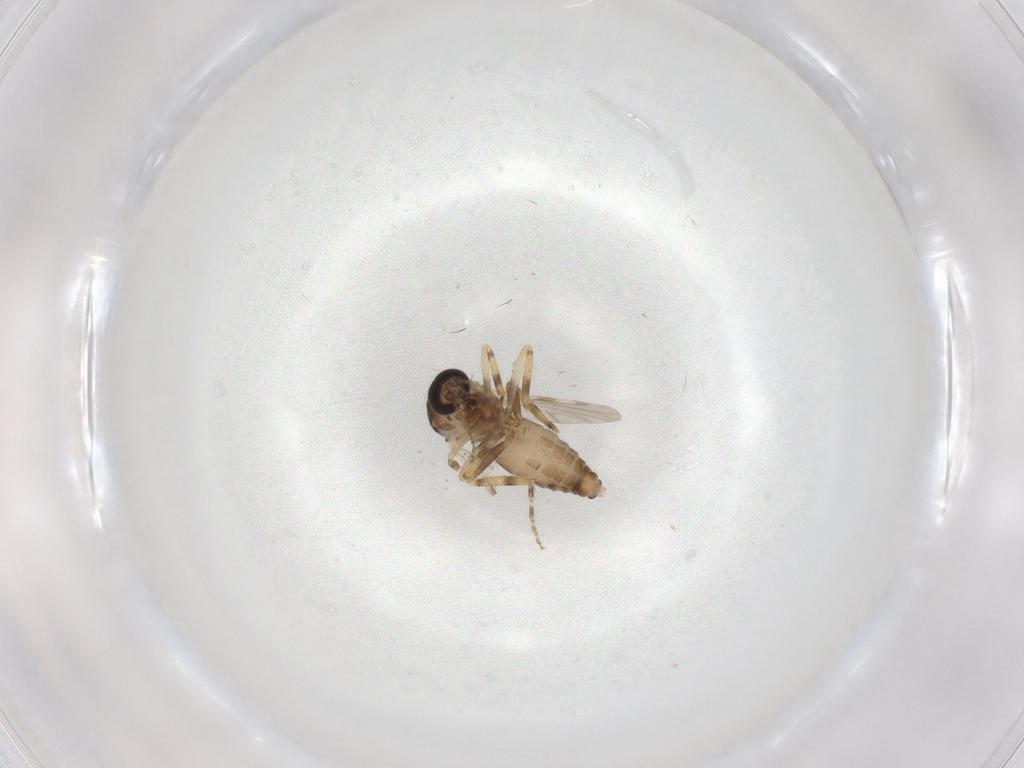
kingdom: Animalia
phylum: Arthropoda
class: Insecta
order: Diptera
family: Ceratopogonidae
